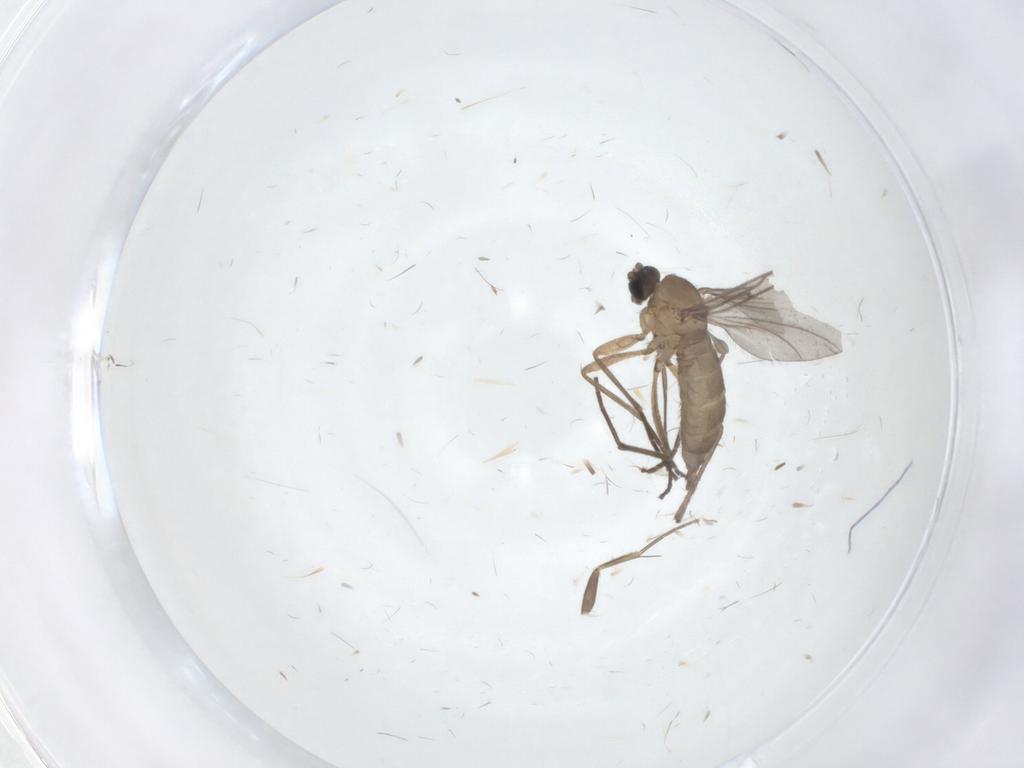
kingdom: Animalia
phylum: Arthropoda
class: Insecta
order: Diptera
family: Sciaridae
